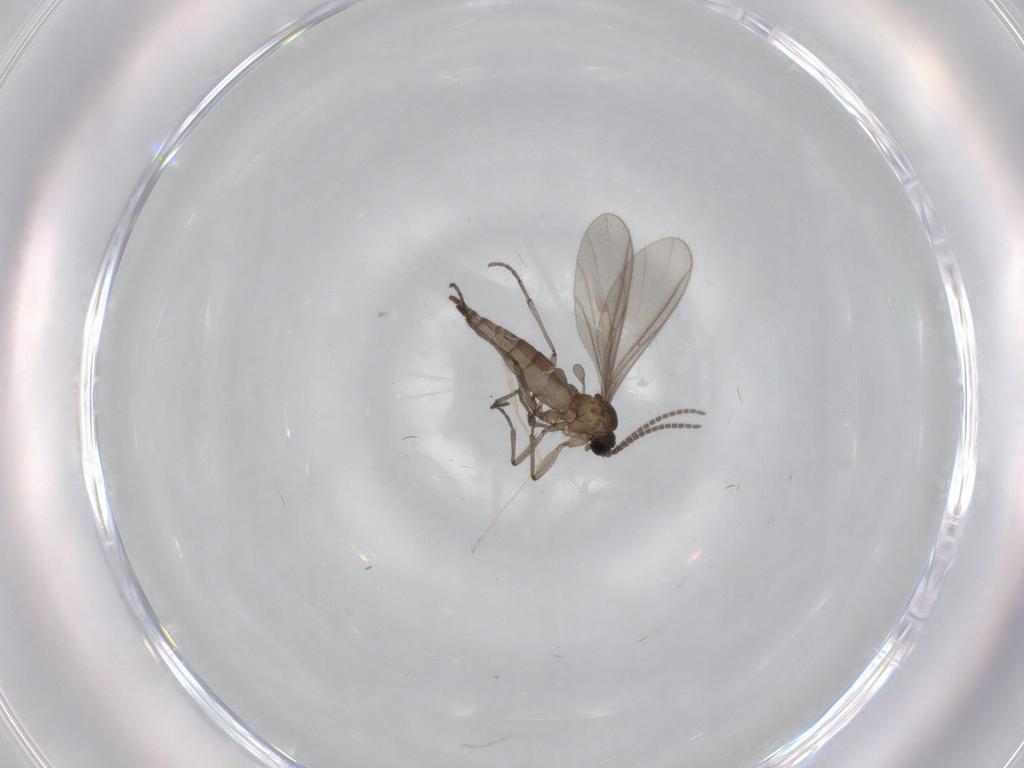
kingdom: Animalia
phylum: Arthropoda
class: Insecta
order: Diptera
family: Sciaridae
